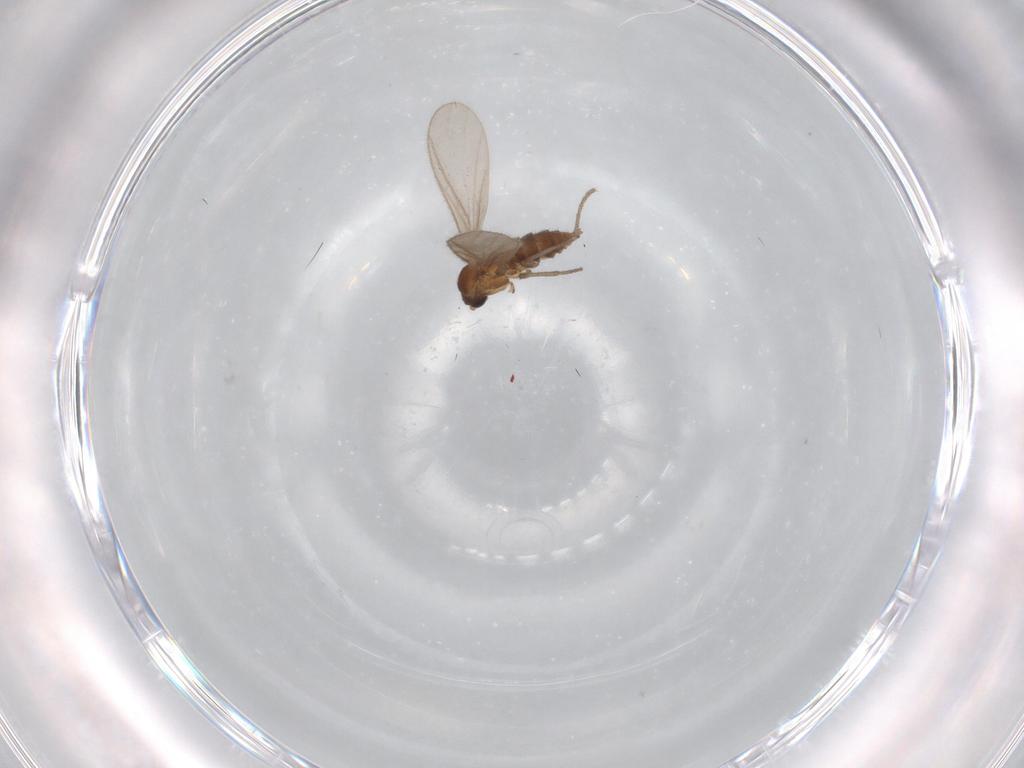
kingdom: Animalia
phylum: Arthropoda
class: Insecta
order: Diptera
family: Sciaridae
